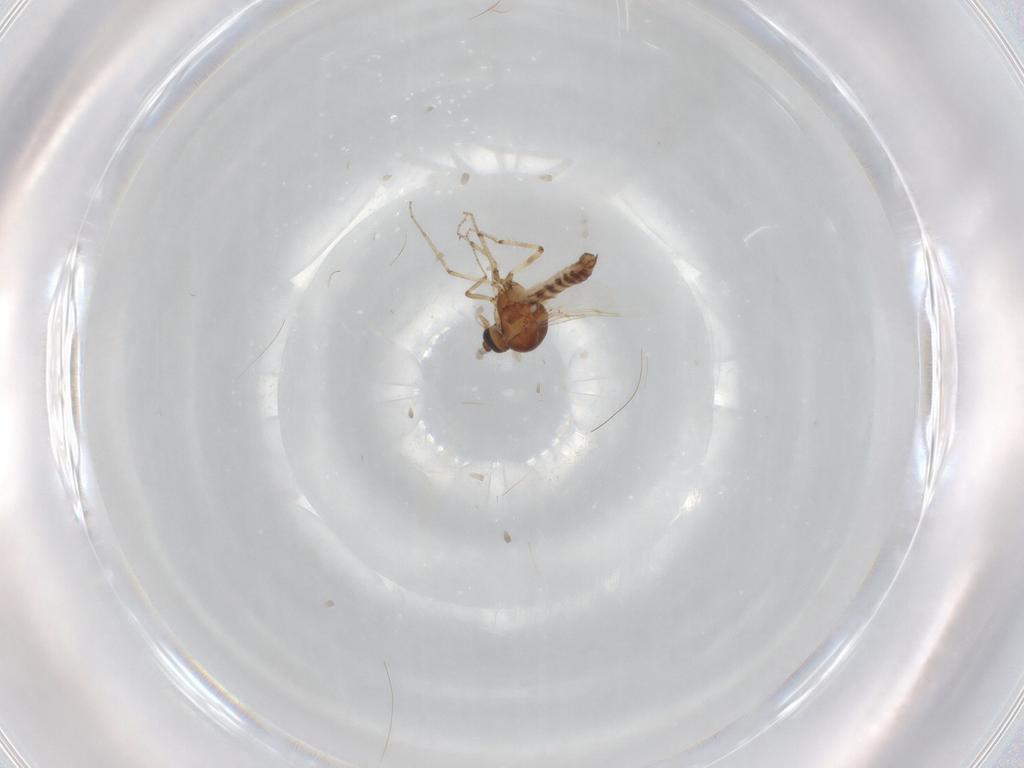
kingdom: Animalia
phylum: Arthropoda
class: Insecta
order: Diptera
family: Ceratopogonidae
